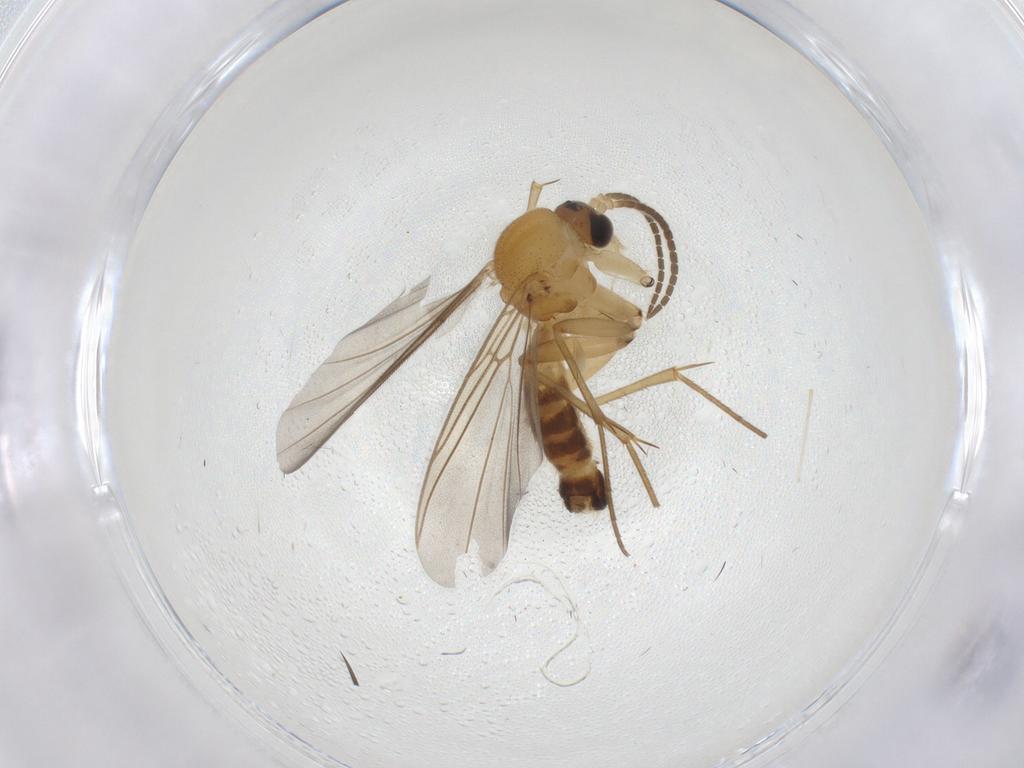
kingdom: Animalia
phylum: Arthropoda
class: Insecta
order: Diptera
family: Mycetophilidae
